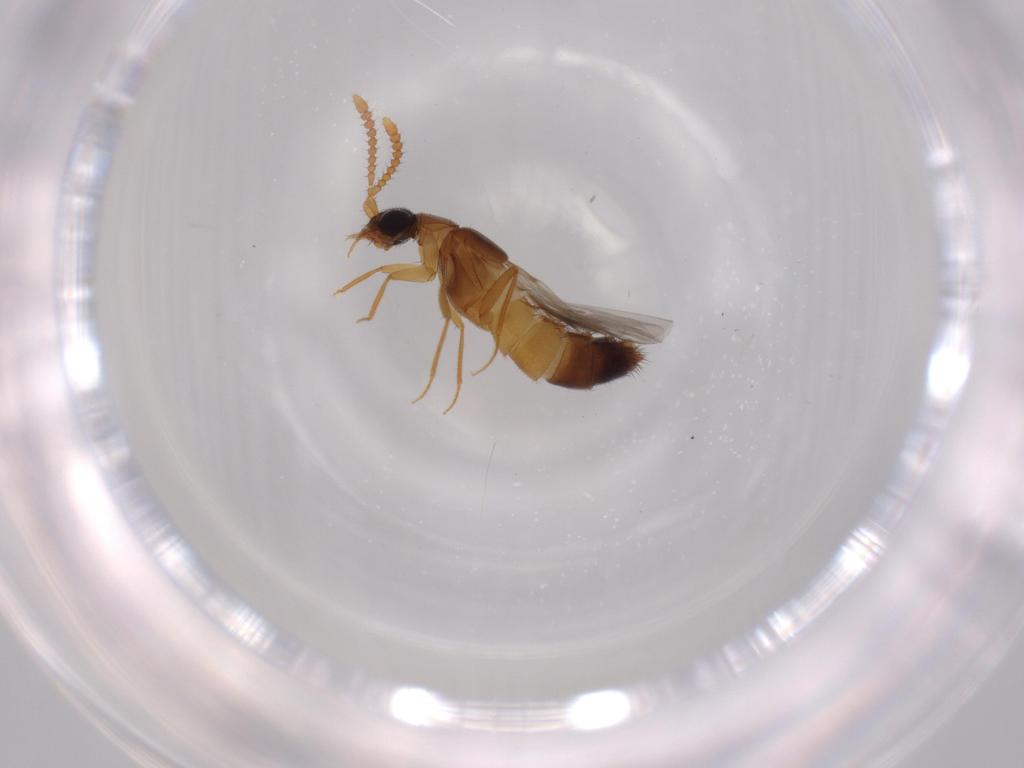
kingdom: Animalia
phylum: Arthropoda
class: Insecta
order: Coleoptera
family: Staphylinidae
